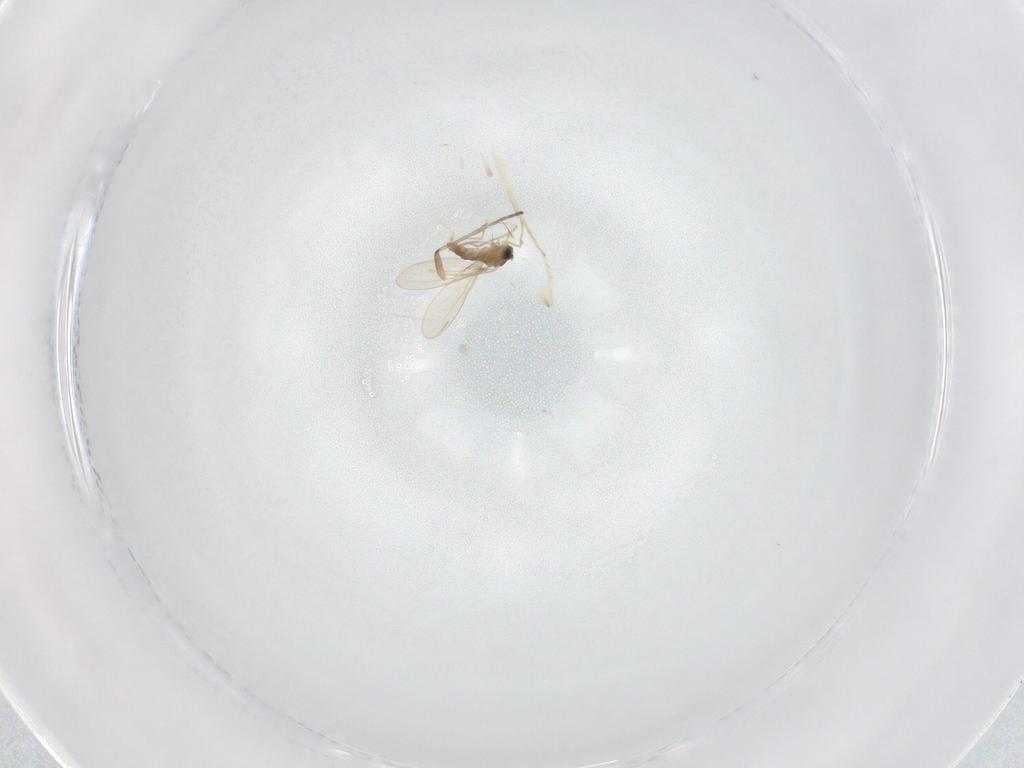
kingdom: Animalia
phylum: Arthropoda
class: Insecta
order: Diptera
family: Cecidomyiidae
